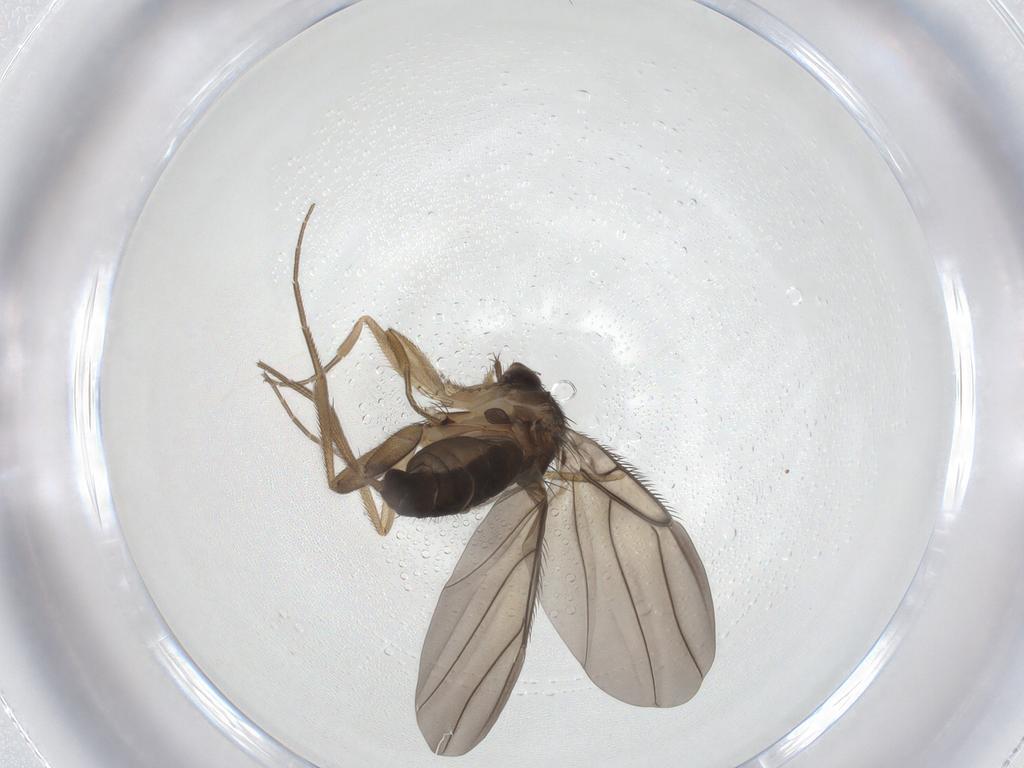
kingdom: Animalia
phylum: Arthropoda
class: Insecta
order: Diptera
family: Phoridae
